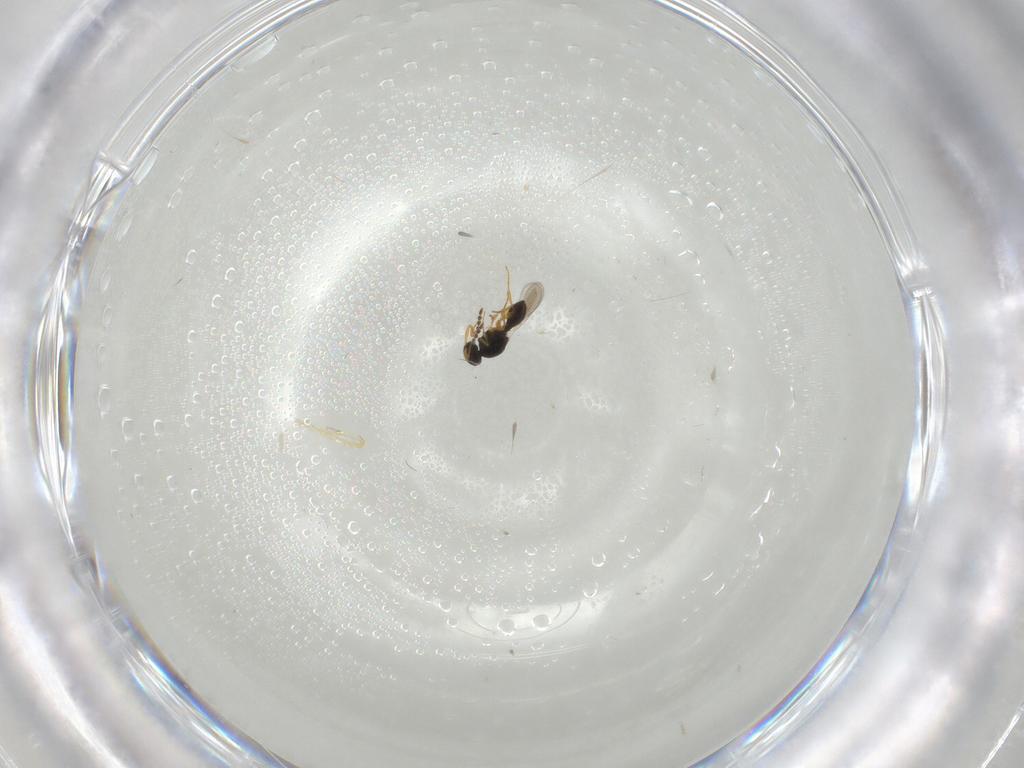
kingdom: Animalia
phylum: Arthropoda
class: Insecta
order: Hymenoptera
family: Platygastridae
